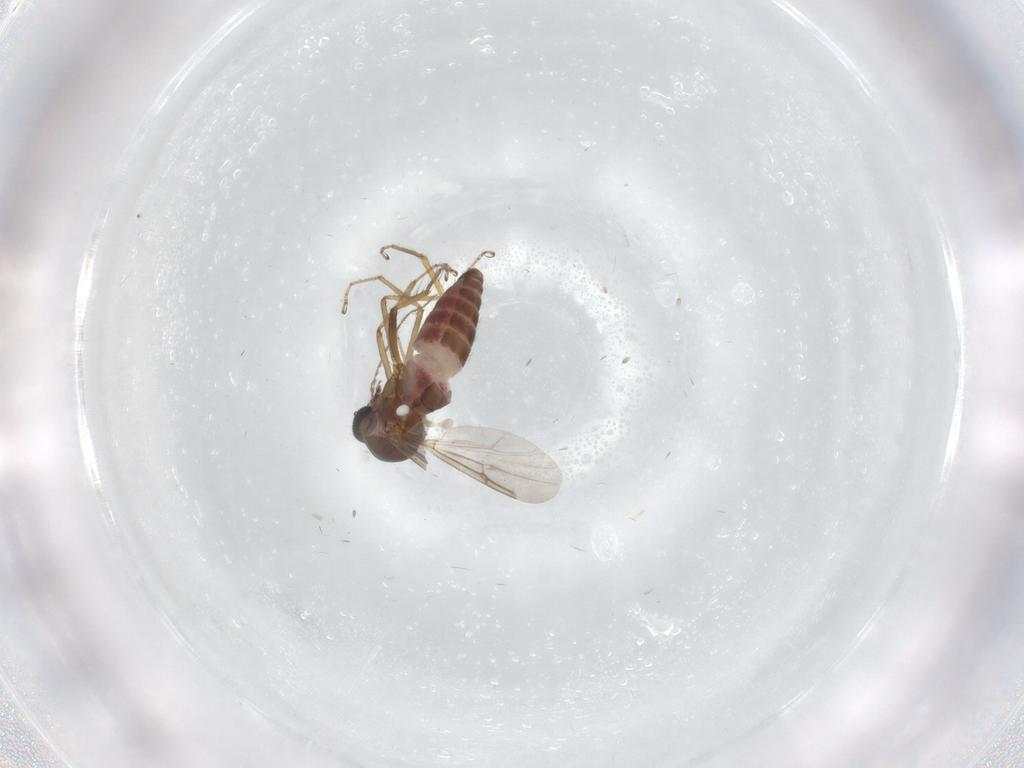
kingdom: Animalia
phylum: Arthropoda
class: Insecta
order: Diptera
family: Ceratopogonidae
